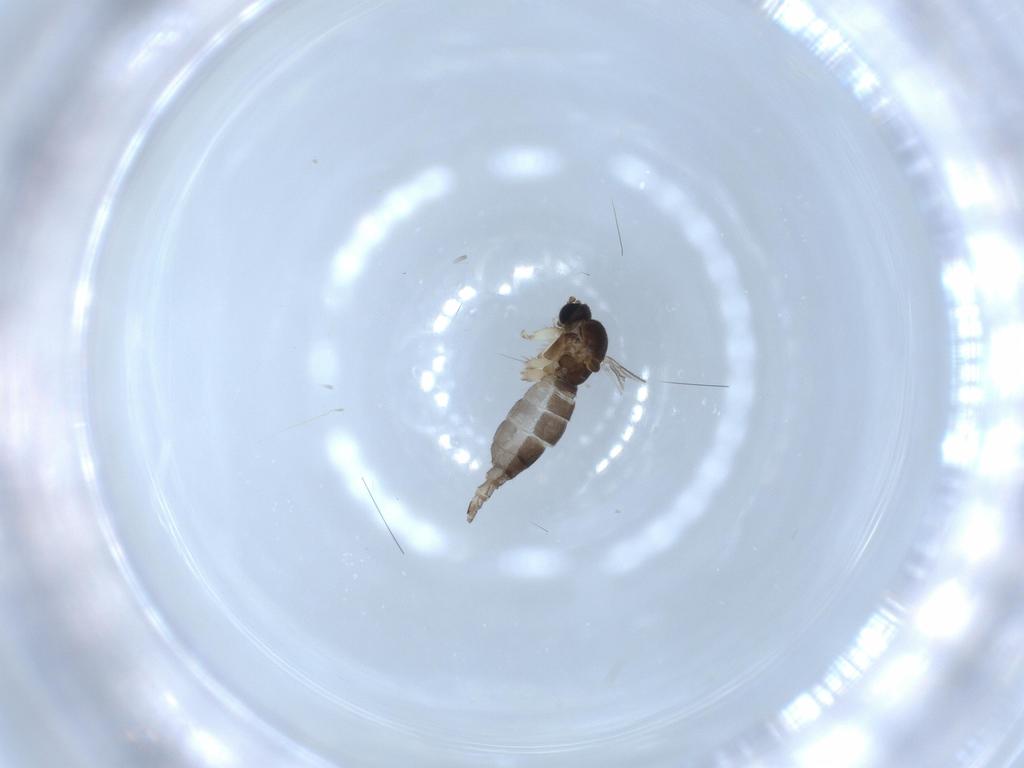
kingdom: Animalia
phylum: Arthropoda
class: Insecta
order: Diptera
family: Sciaridae
